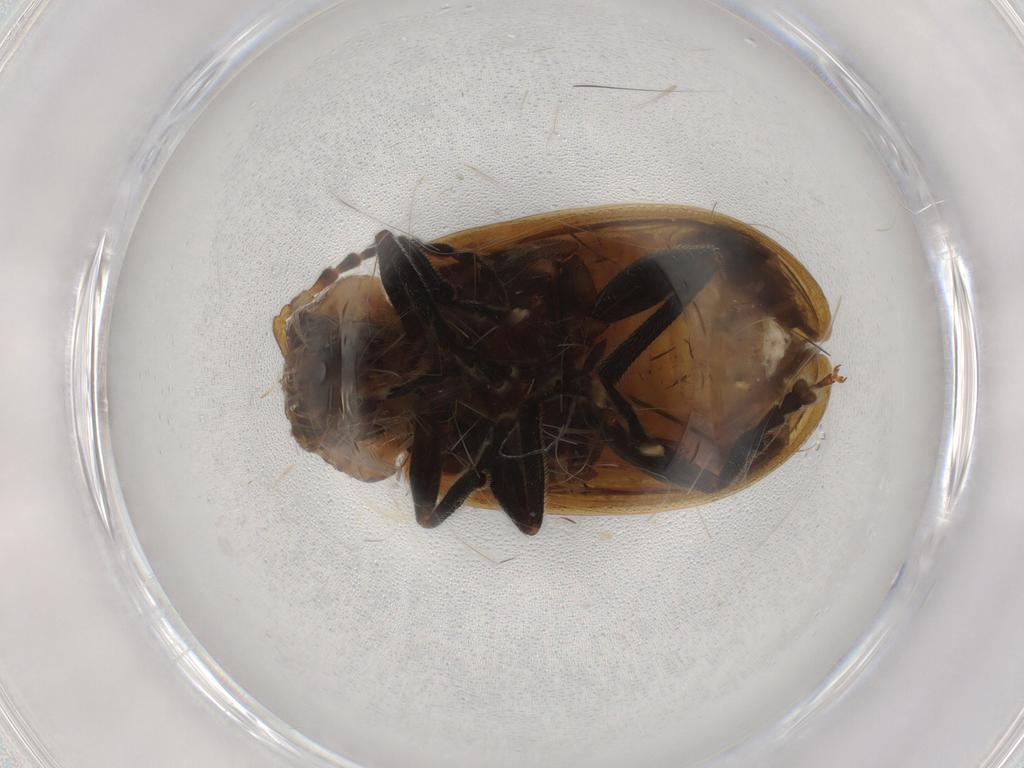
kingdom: Animalia
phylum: Arthropoda
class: Insecta
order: Coleoptera
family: Chrysomelidae
